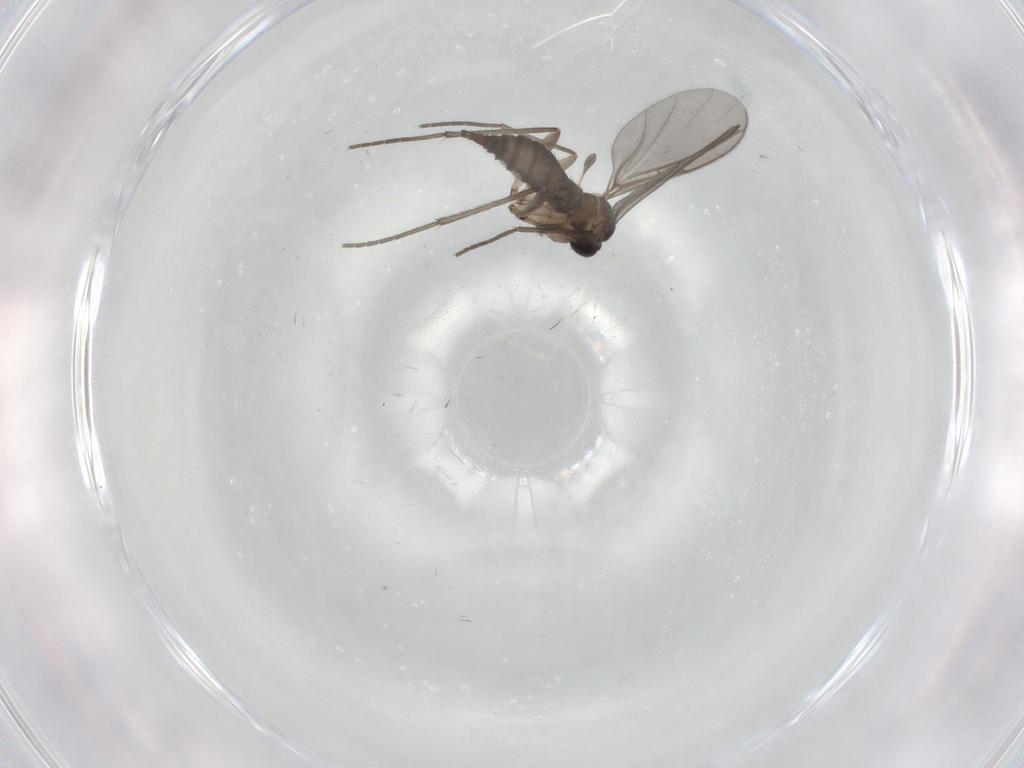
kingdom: Animalia
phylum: Arthropoda
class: Insecta
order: Diptera
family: Sciaridae
